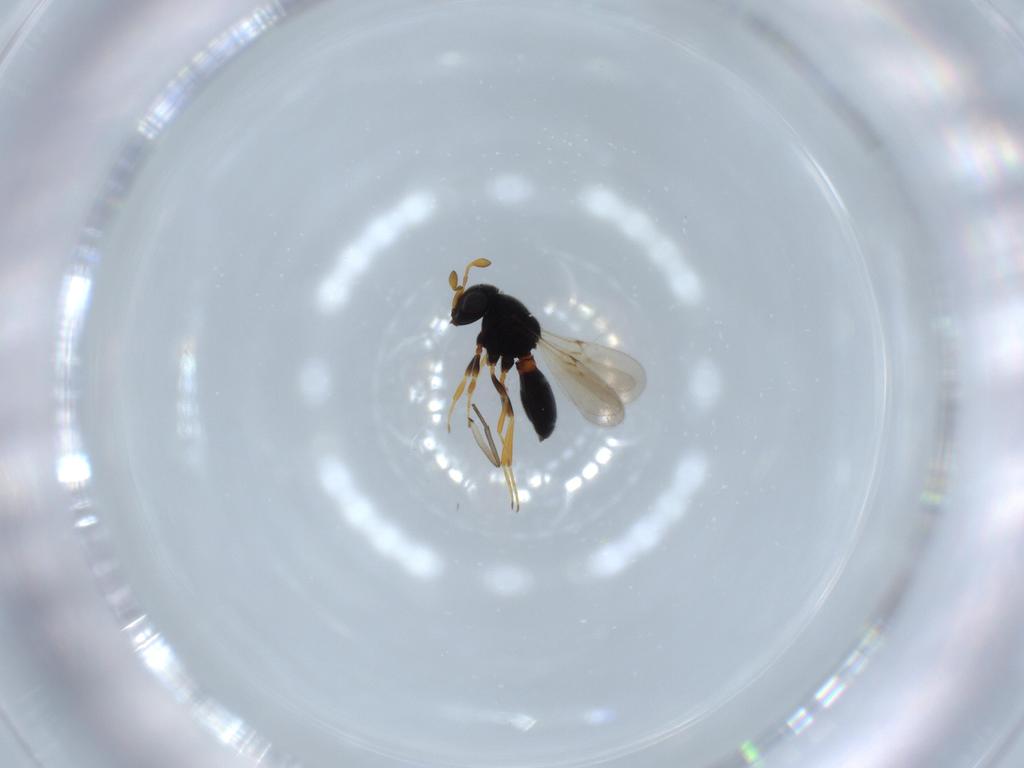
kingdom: Animalia
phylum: Arthropoda
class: Insecta
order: Hymenoptera
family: Scelionidae
